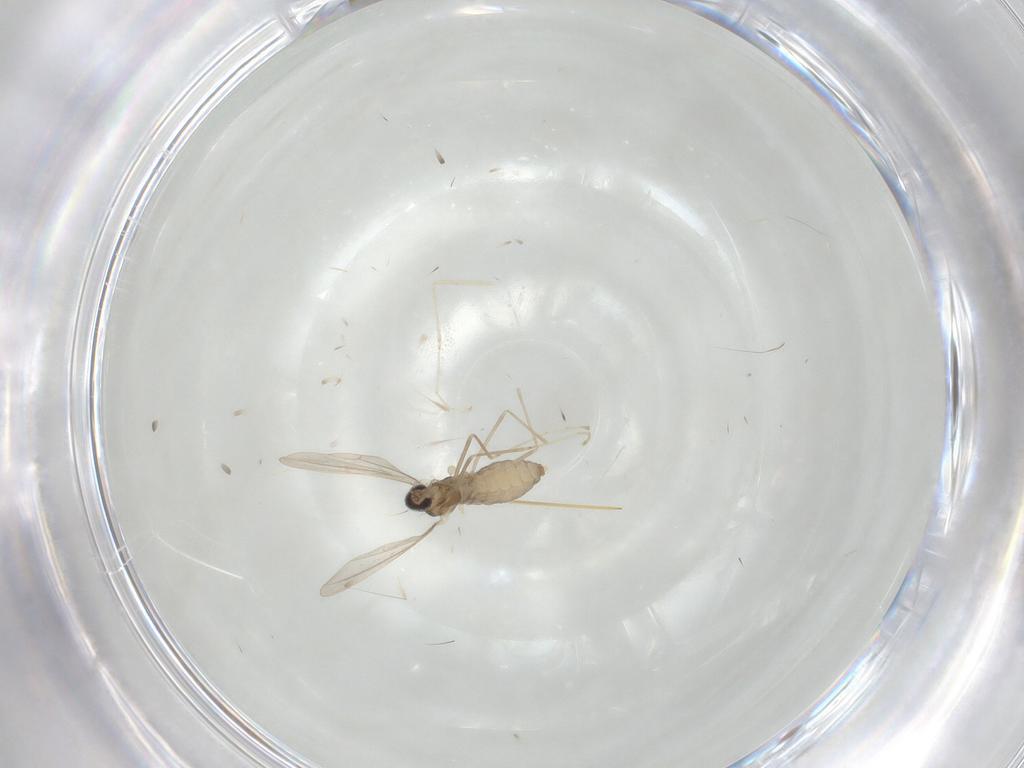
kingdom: Animalia
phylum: Arthropoda
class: Insecta
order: Diptera
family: Cecidomyiidae
